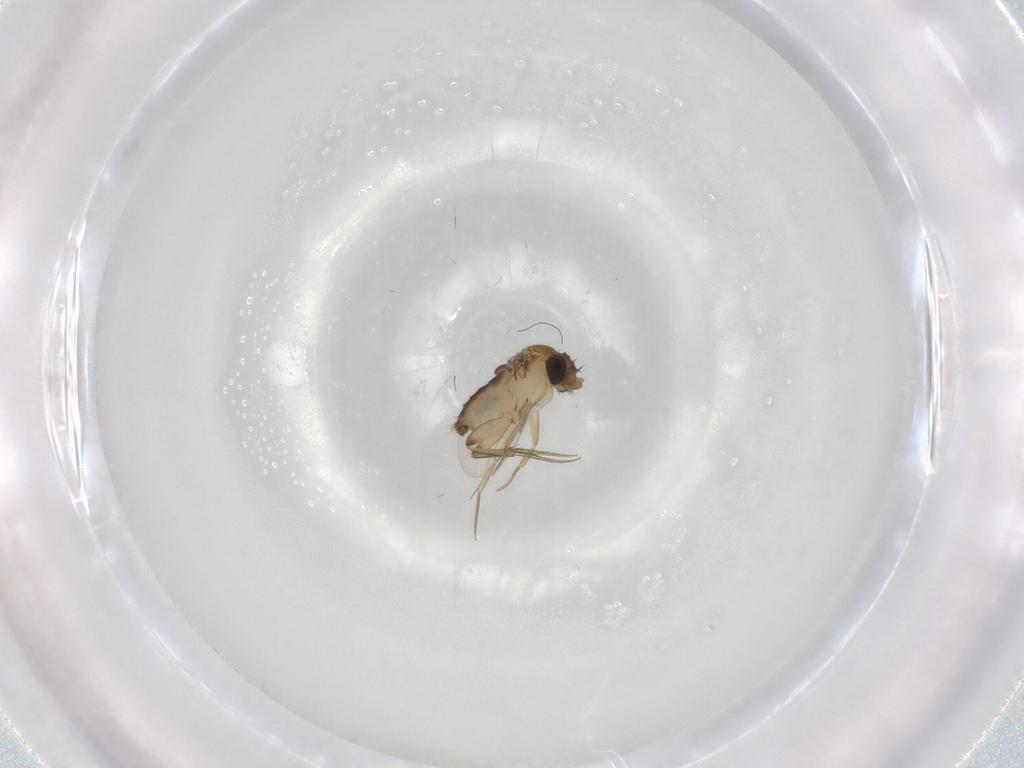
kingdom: Animalia
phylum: Arthropoda
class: Insecta
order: Diptera
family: Phoridae
